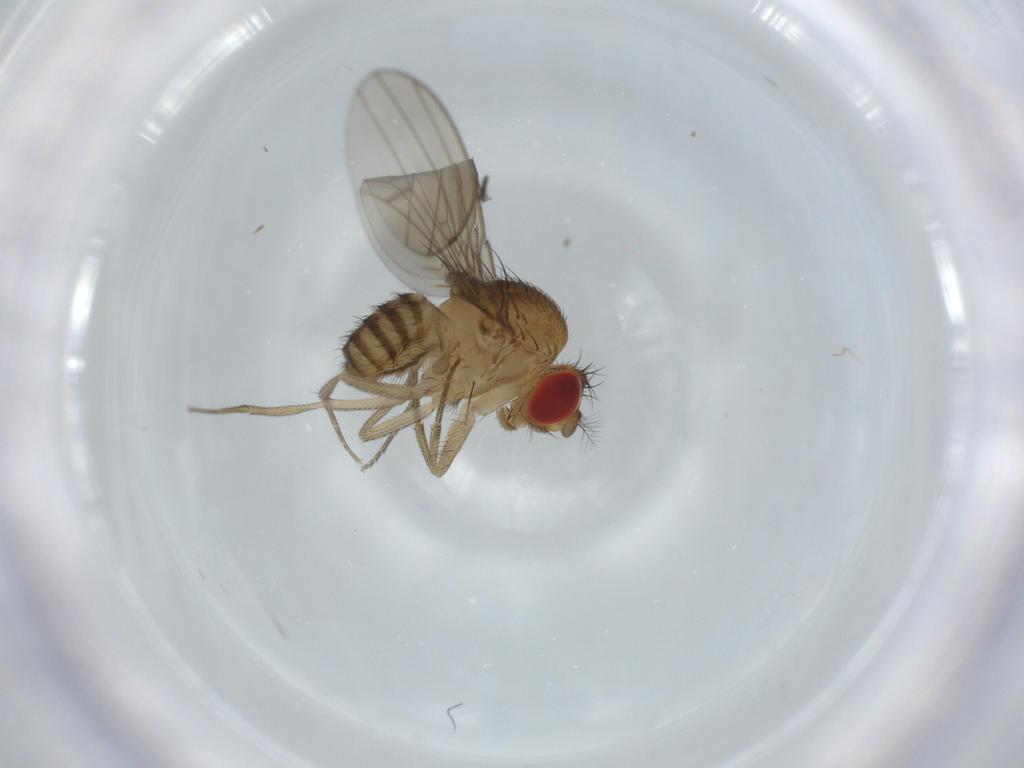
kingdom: Animalia
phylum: Arthropoda
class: Insecta
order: Diptera
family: Sciaridae
